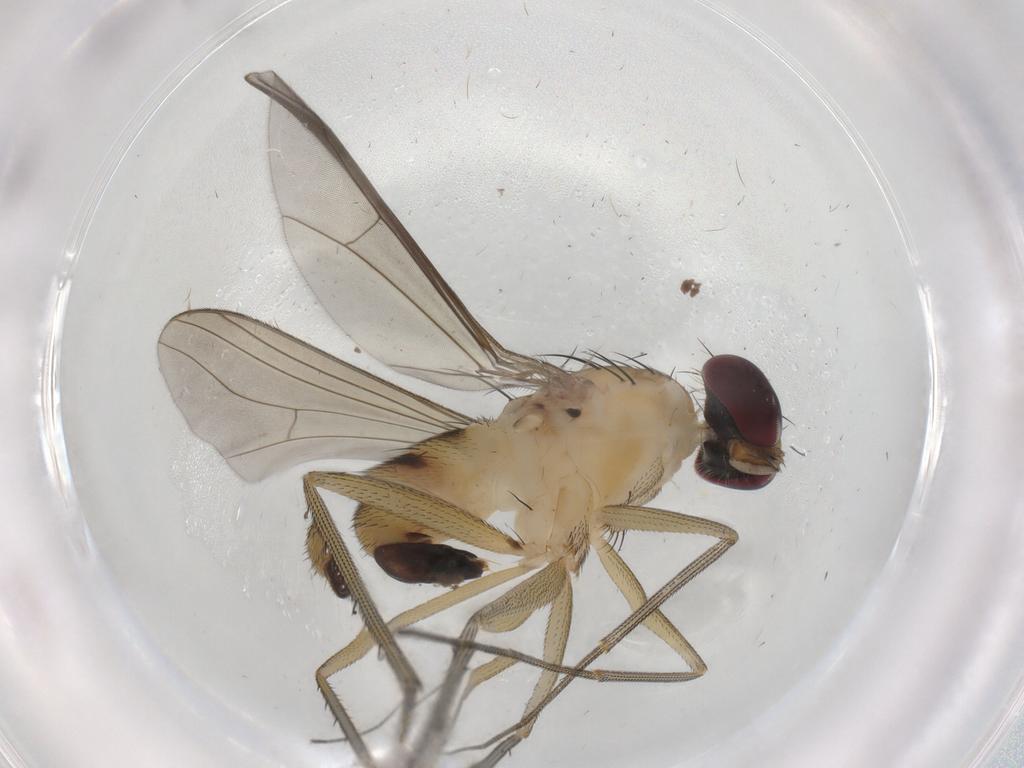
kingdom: Animalia
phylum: Arthropoda
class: Insecta
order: Diptera
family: Dolichopodidae
